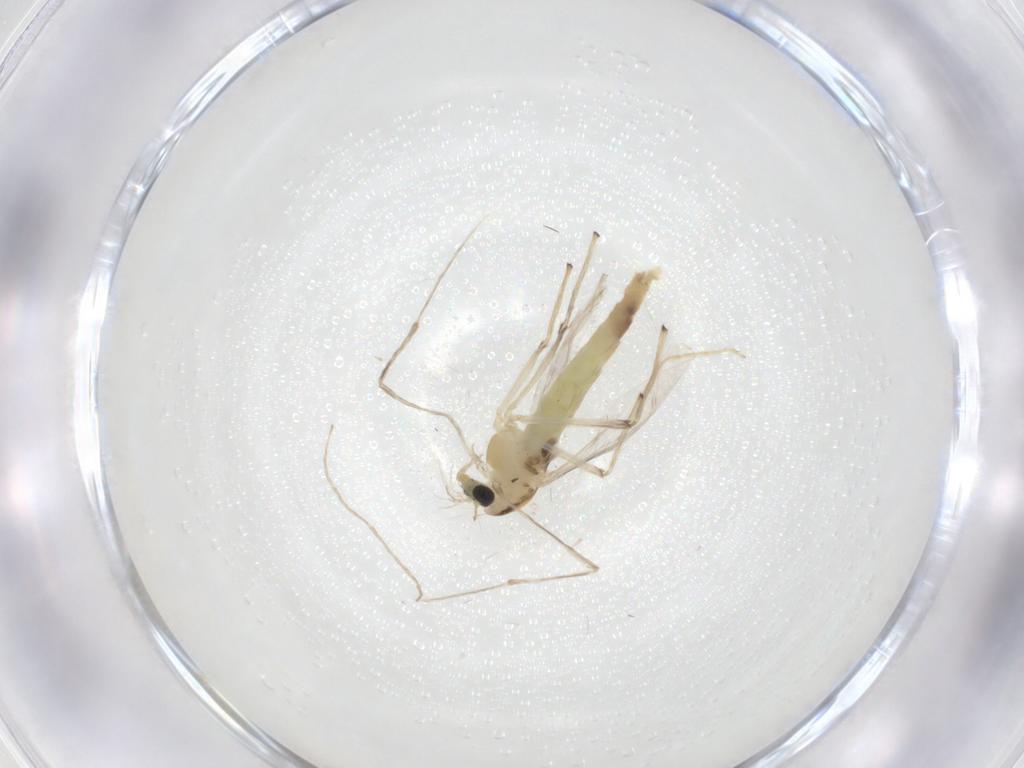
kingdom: Animalia
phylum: Arthropoda
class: Insecta
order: Diptera
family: Chironomidae
